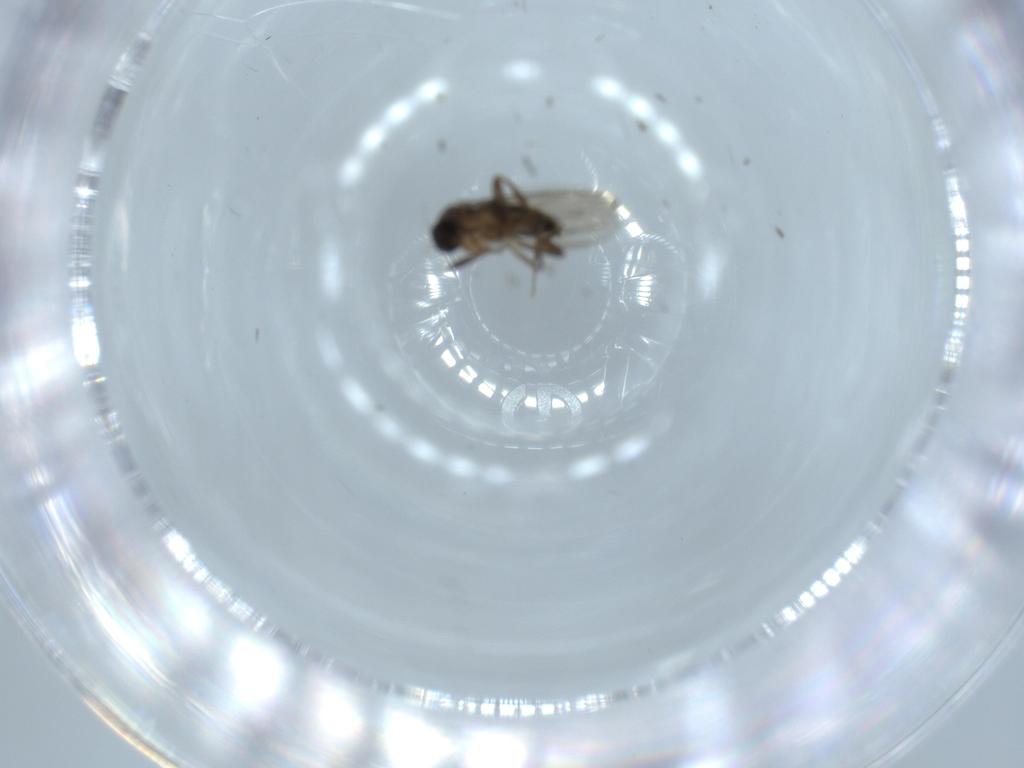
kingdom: Animalia
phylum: Arthropoda
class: Insecta
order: Diptera
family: Phoridae
